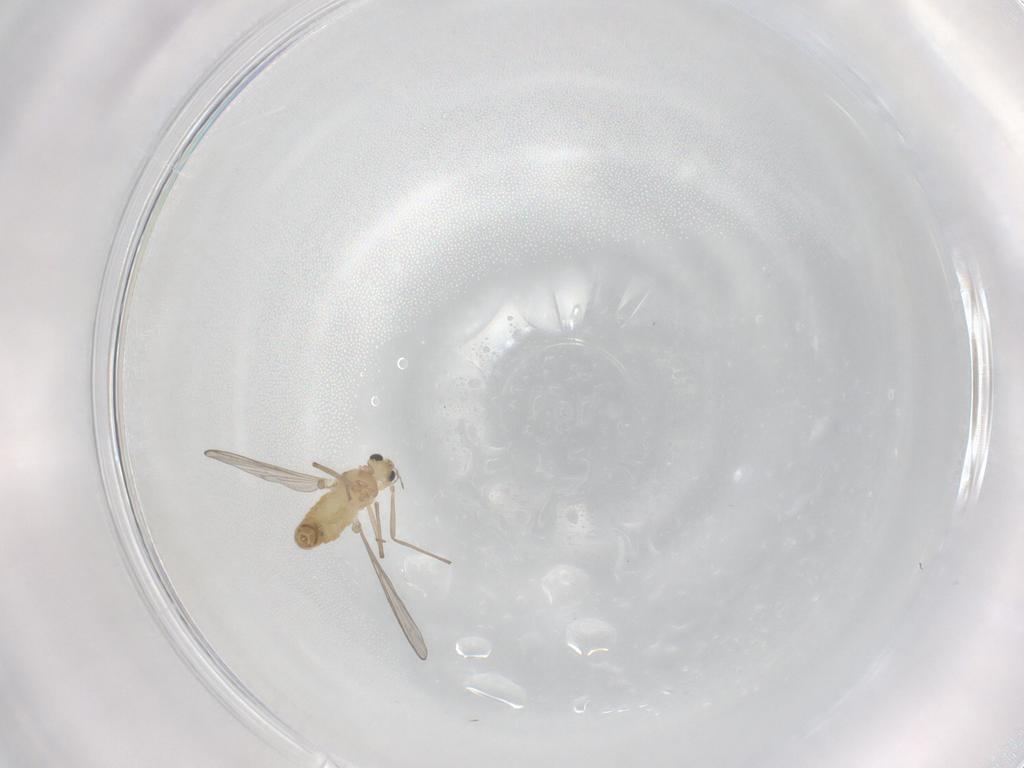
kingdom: Animalia
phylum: Arthropoda
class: Insecta
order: Diptera
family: Chironomidae
